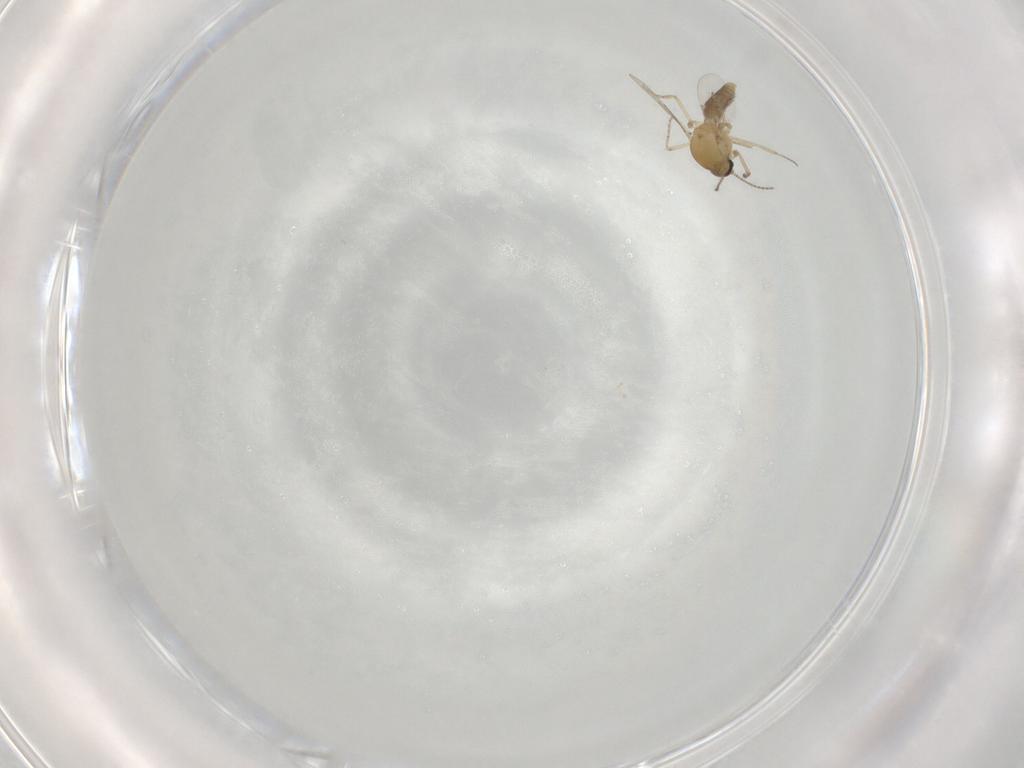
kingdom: Animalia
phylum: Arthropoda
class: Insecta
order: Diptera
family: Ceratopogonidae
